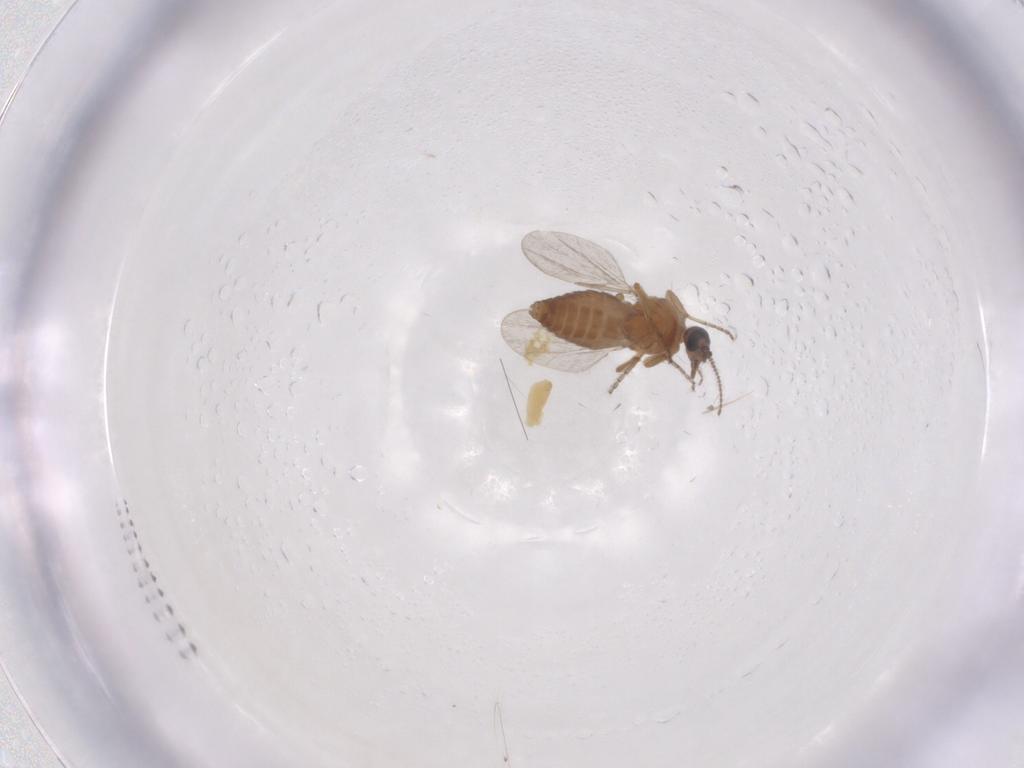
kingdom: Animalia
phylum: Arthropoda
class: Insecta
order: Diptera
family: Cecidomyiidae
